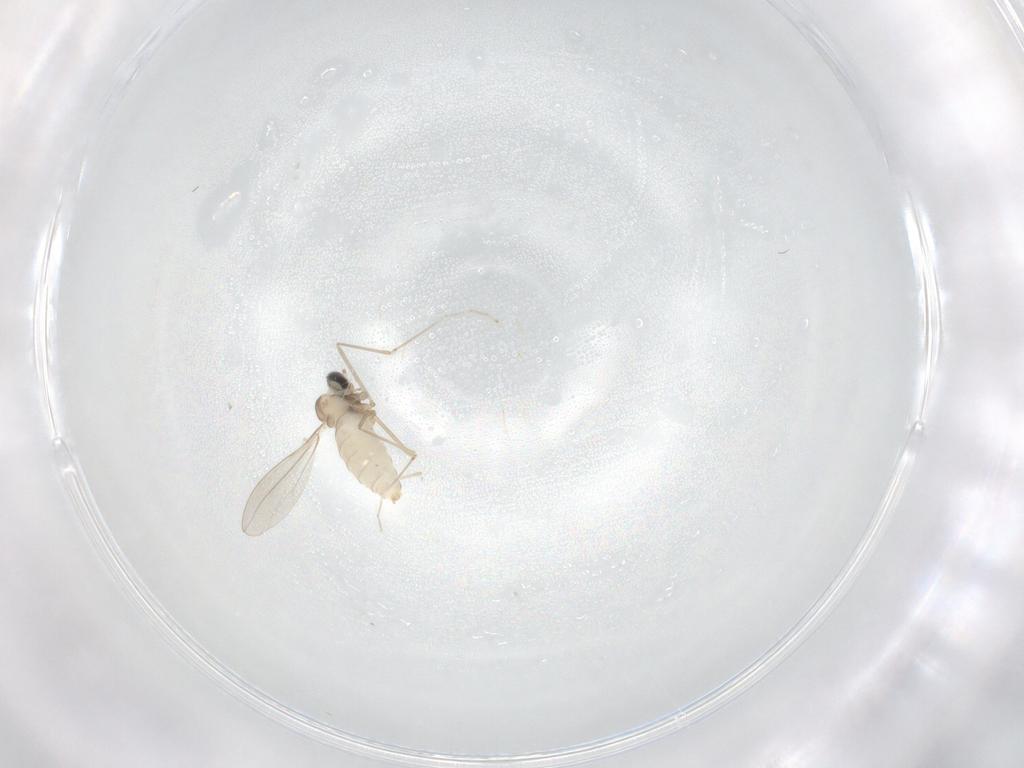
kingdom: Animalia
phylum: Arthropoda
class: Insecta
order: Diptera
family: Cecidomyiidae
